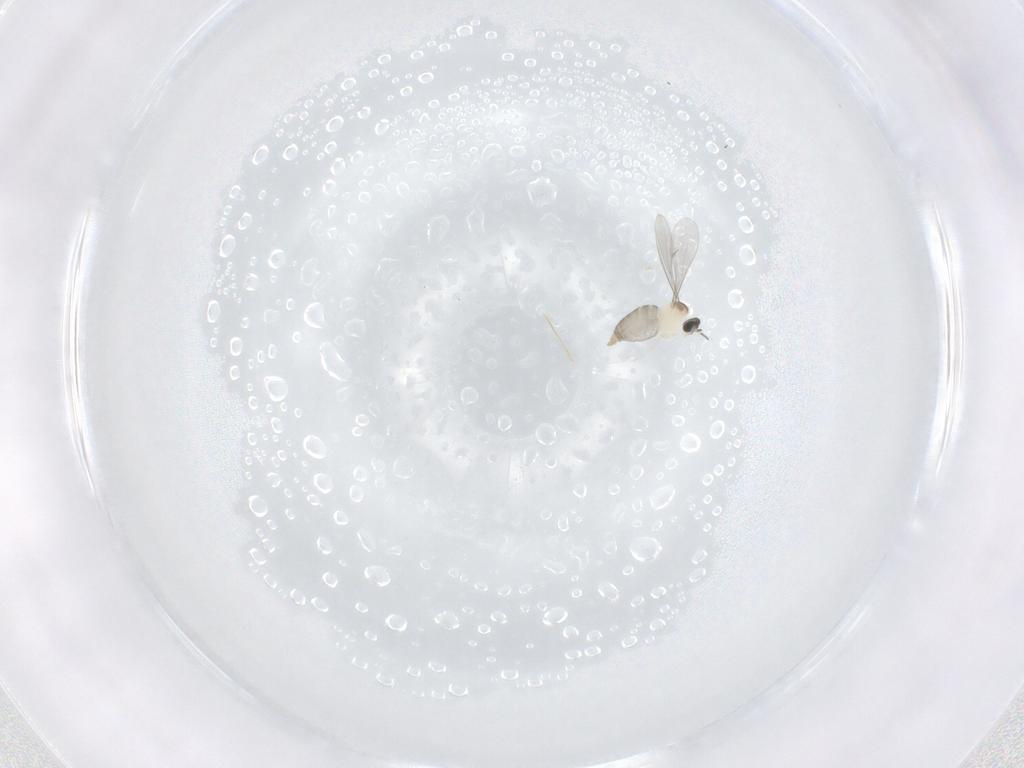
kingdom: Animalia
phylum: Arthropoda
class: Insecta
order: Diptera
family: Cecidomyiidae
